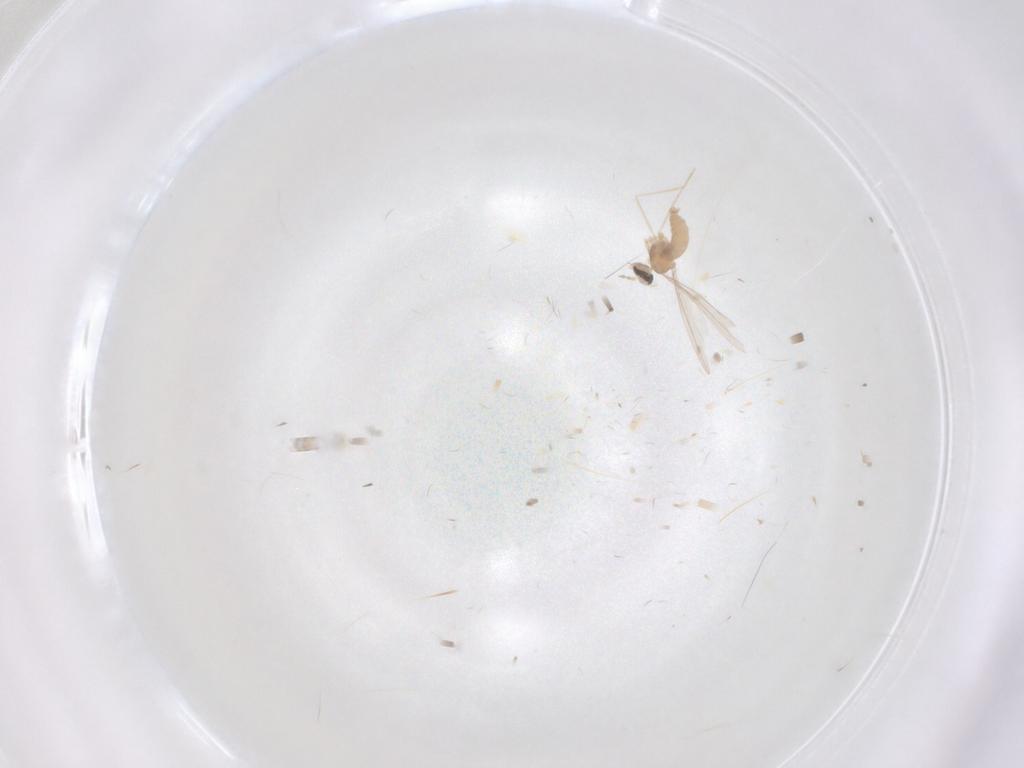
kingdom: Animalia
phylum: Arthropoda
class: Insecta
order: Diptera
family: Cecidomyiidae
